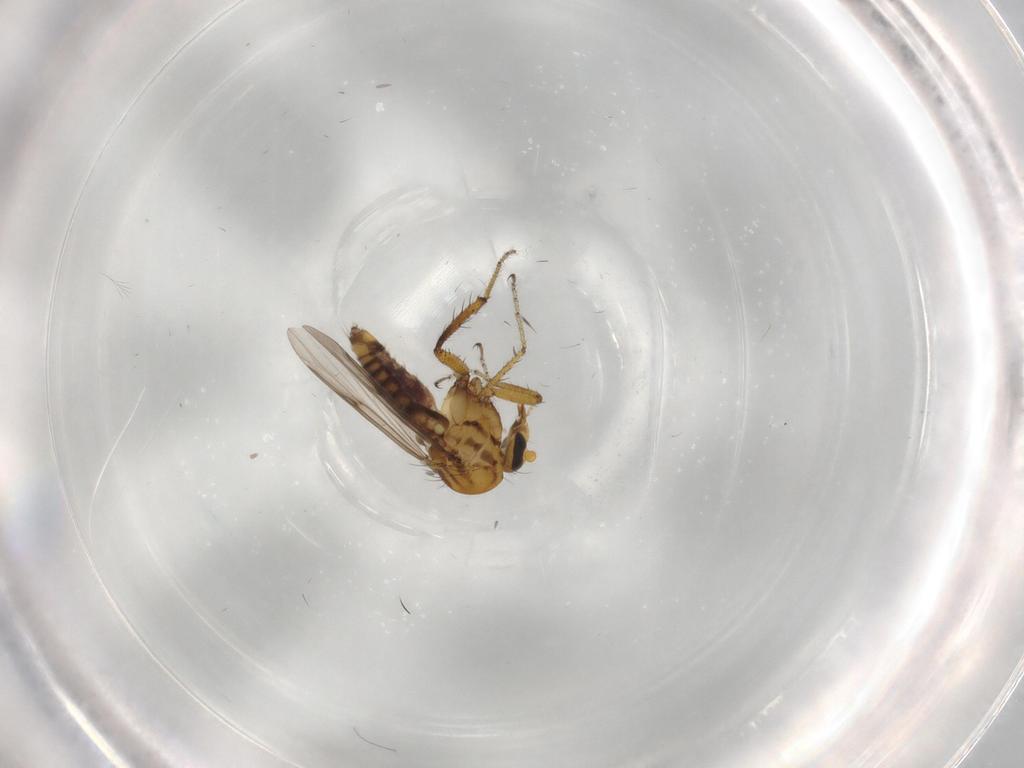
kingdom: Animalia
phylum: Arthropoda
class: Insecta
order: Diptera
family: Ceratopogonidae
